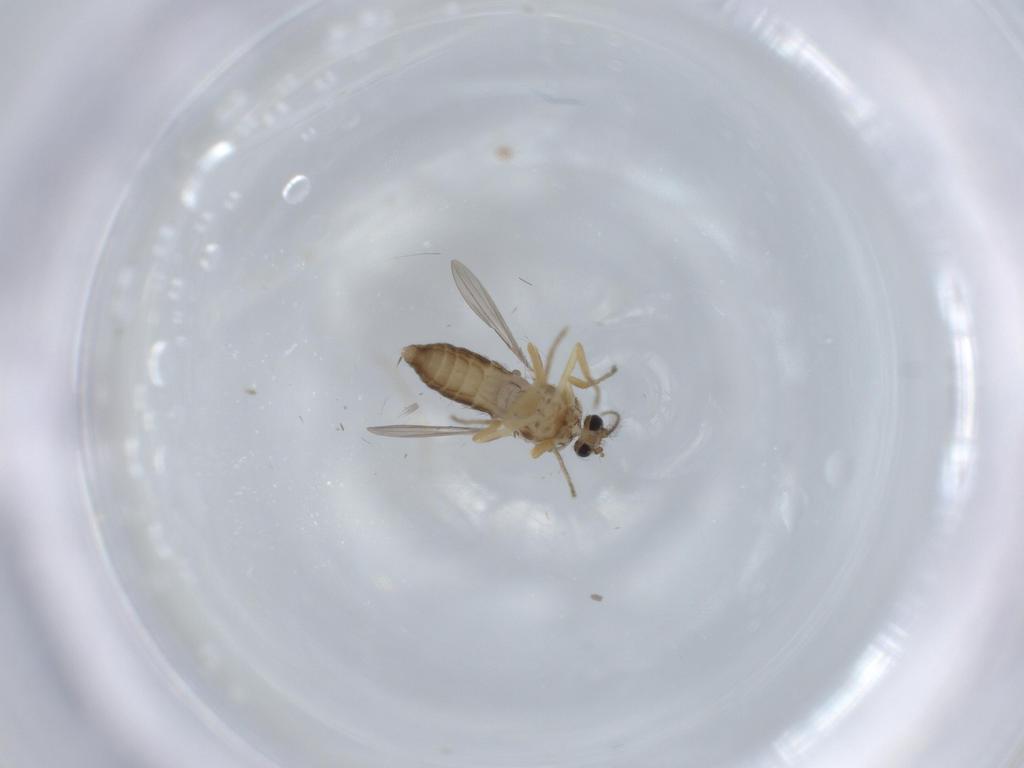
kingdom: Animalia
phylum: Arthropoda
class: Insecta
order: Diptera
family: Ceratopogonidae
